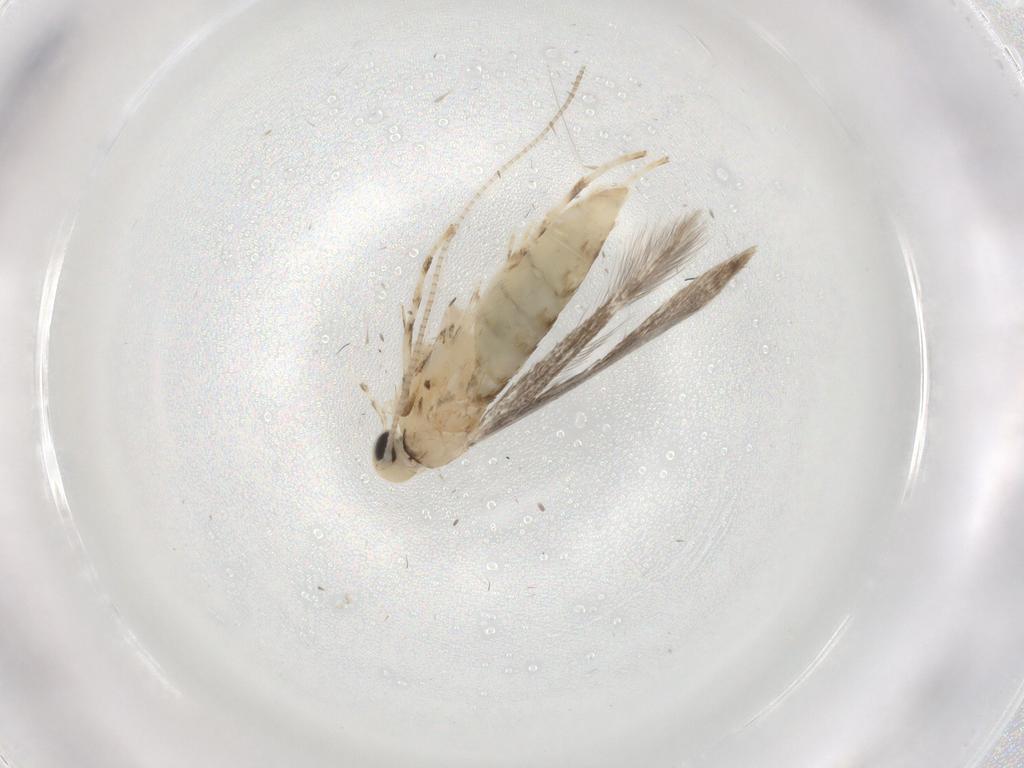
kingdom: Animalia
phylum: Arthropoda
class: Insecta
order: Lepidoptera
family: Gracillariidae
